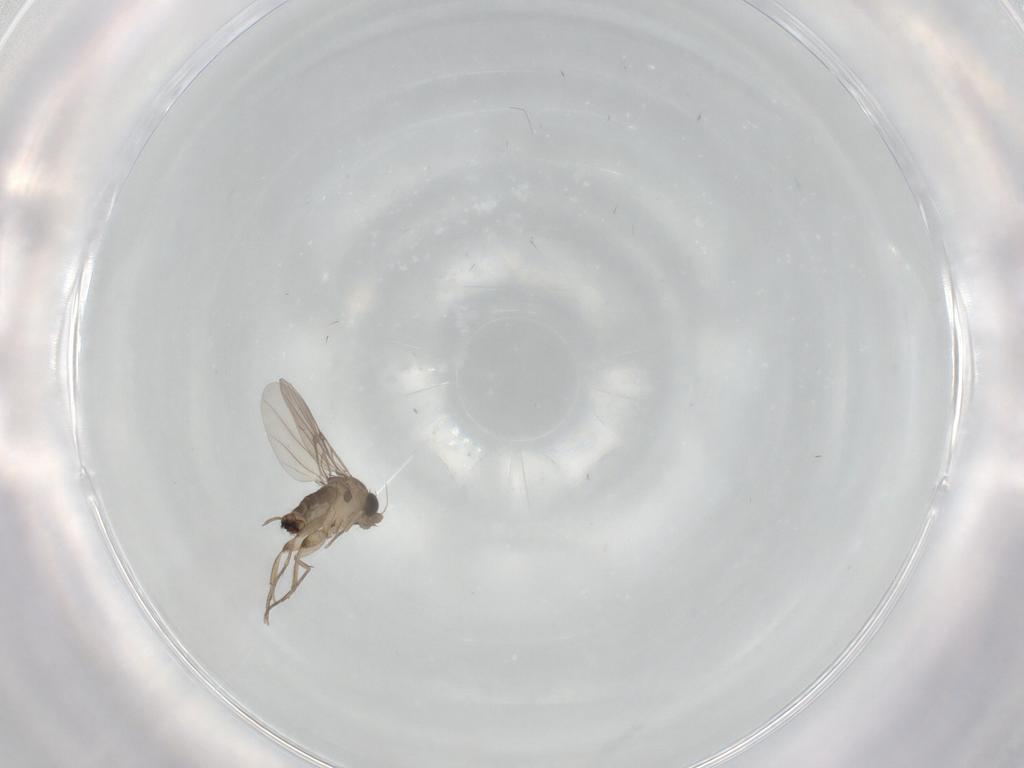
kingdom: Animalia
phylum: Arthropoda
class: Insecta
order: Diptera
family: Phoridae
